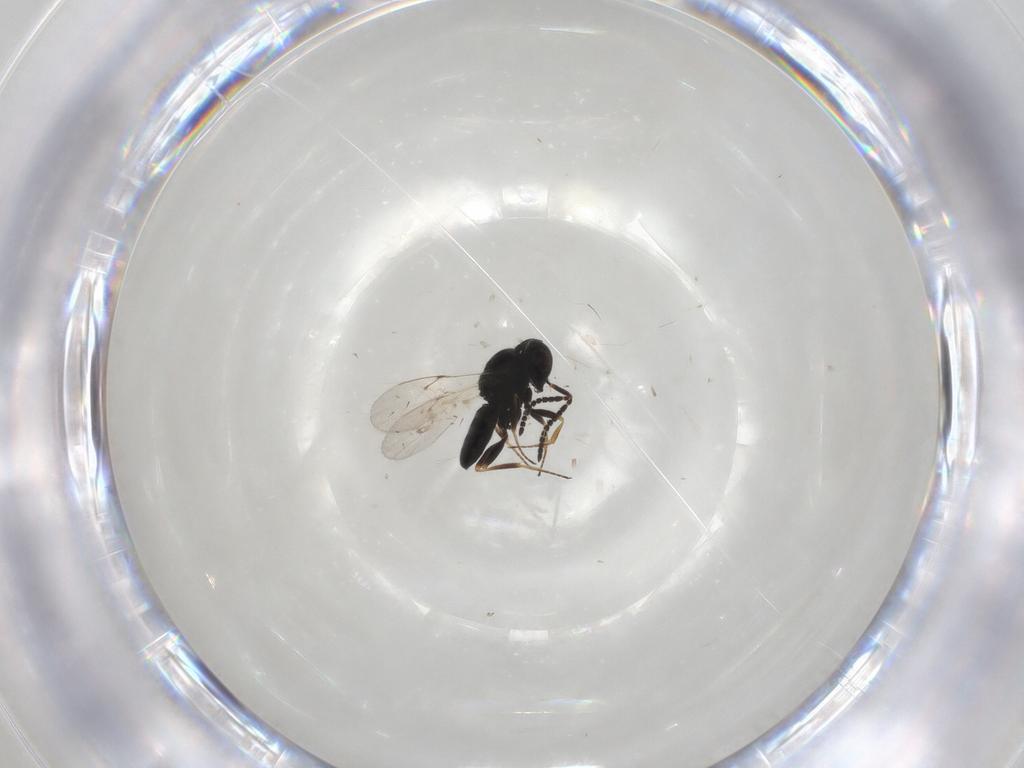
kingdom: Animalia
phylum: Arthropoda
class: Insecta
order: Hymenoptera
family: Scelionidae
